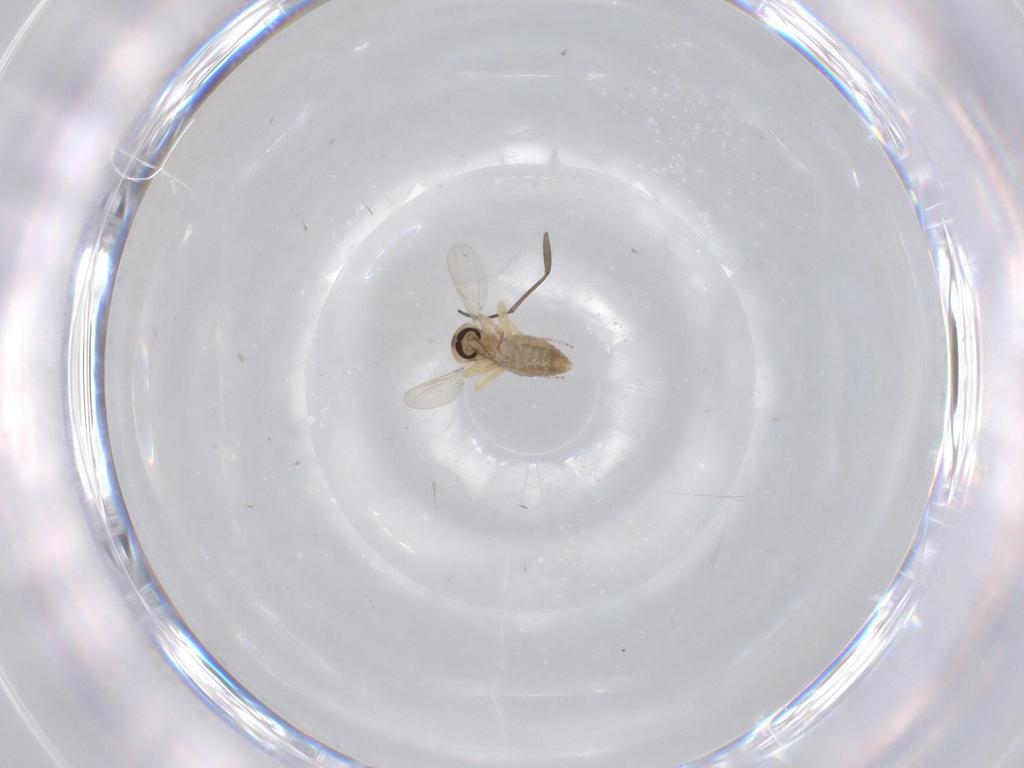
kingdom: Animalia
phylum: Arthropoda
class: Insecta
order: Diptera
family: Ceratopogonidae
